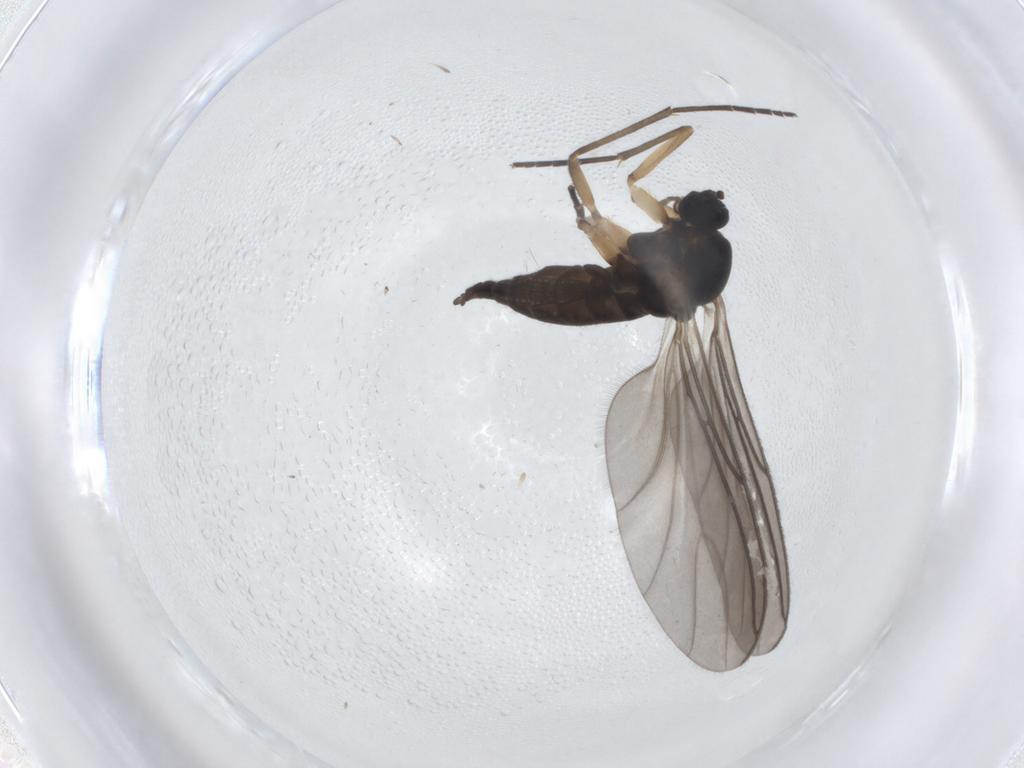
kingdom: Animalia
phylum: Arthropoda
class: Insecta
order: Diptera
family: Sciaridae
